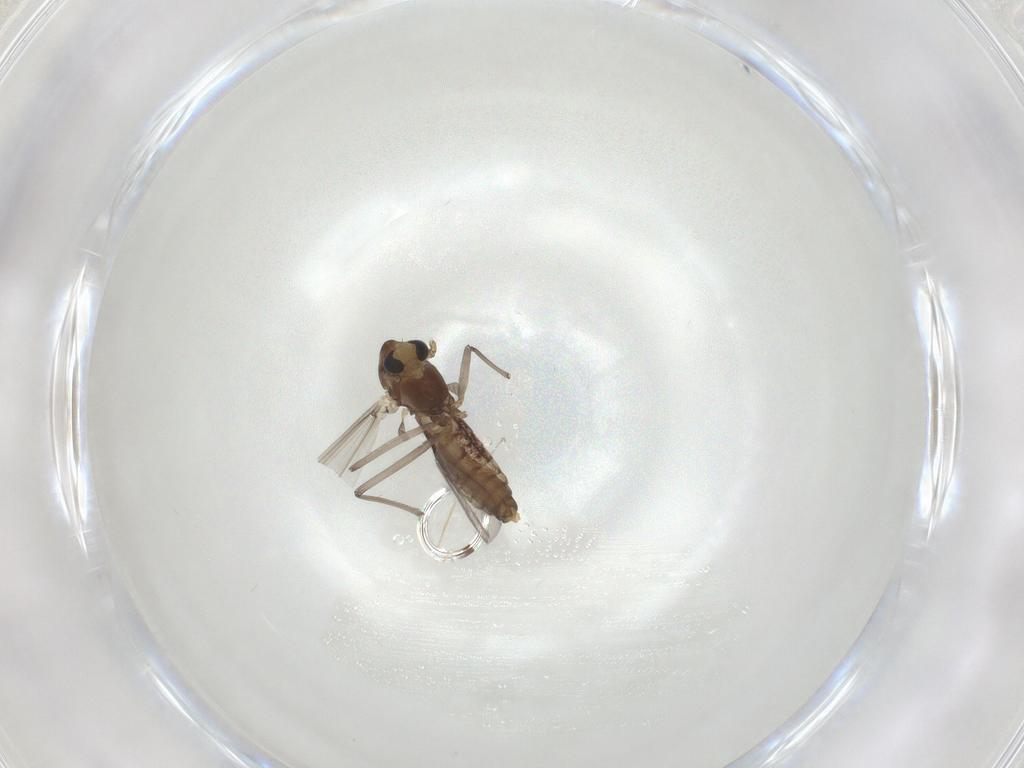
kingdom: Animalia
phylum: Arthropoda
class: Insecta
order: Diptera
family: Chironomidae
